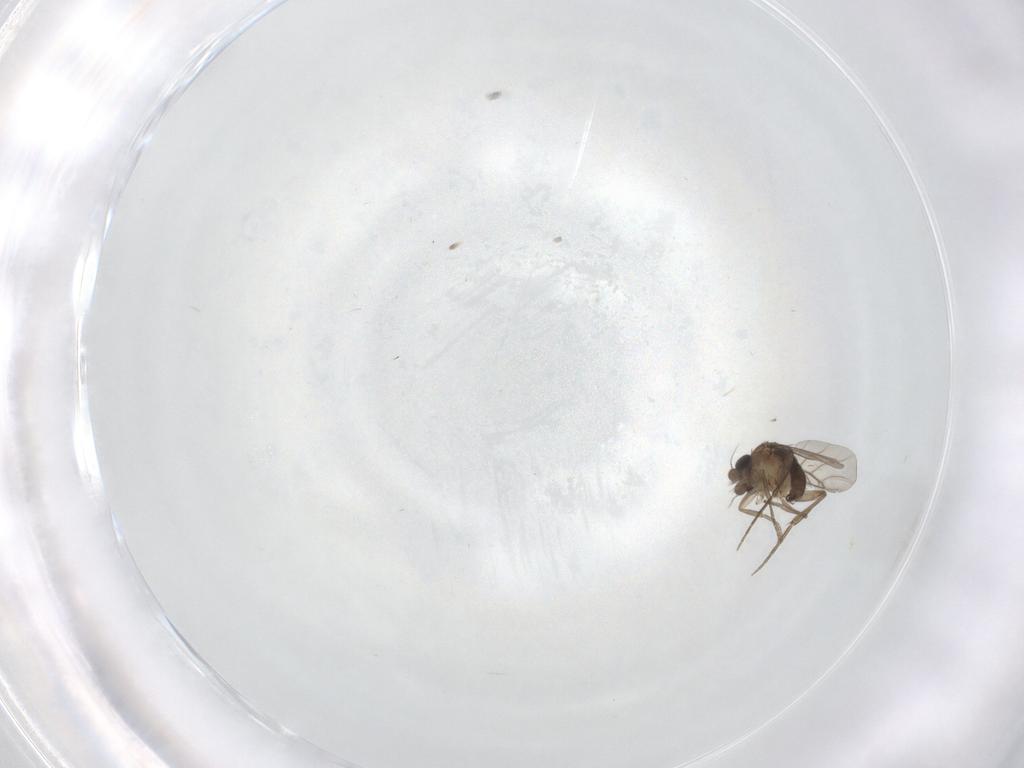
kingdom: Animalia
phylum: Arthropoda
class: Insecta
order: Diptera
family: Phoridae
